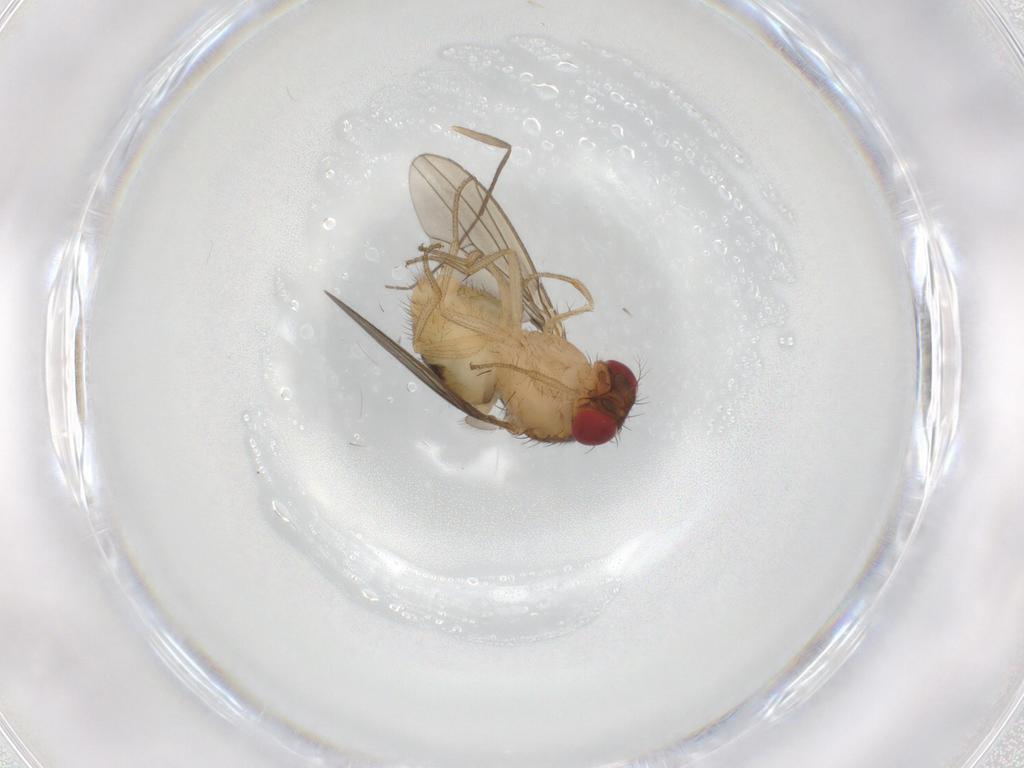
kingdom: Animalia
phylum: Arthropoda
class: Insecta
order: Diptera
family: Drosophilidae
